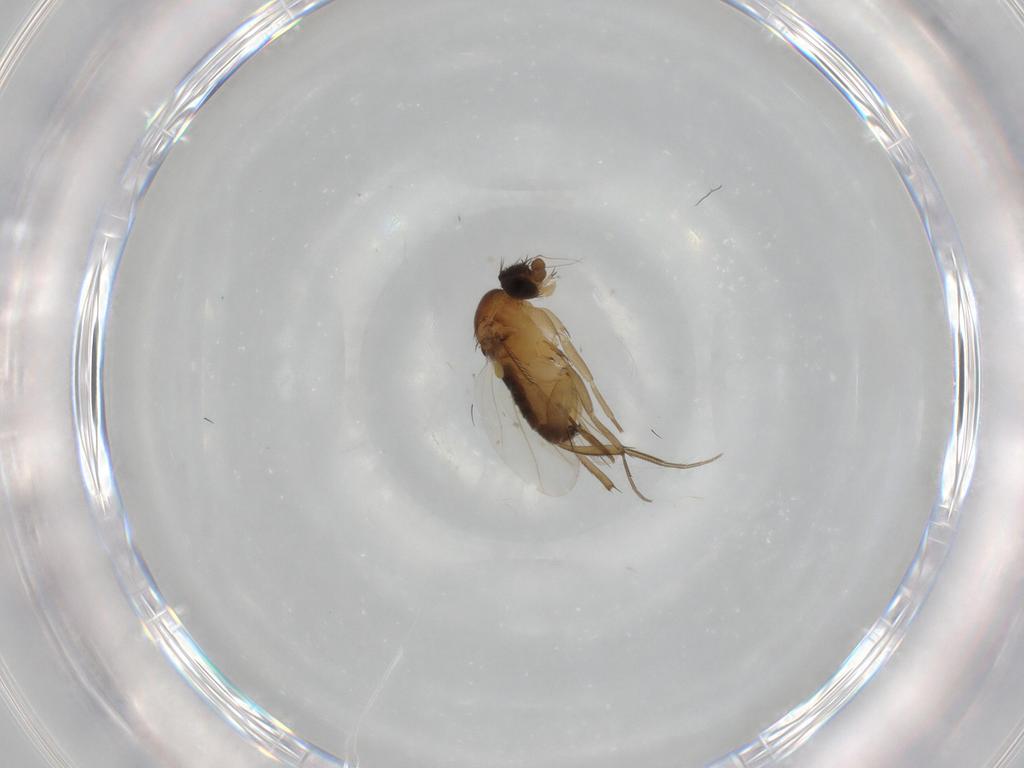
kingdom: Animalia
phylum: Arthropoda
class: Insecta
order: Diptera
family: Phoridae
